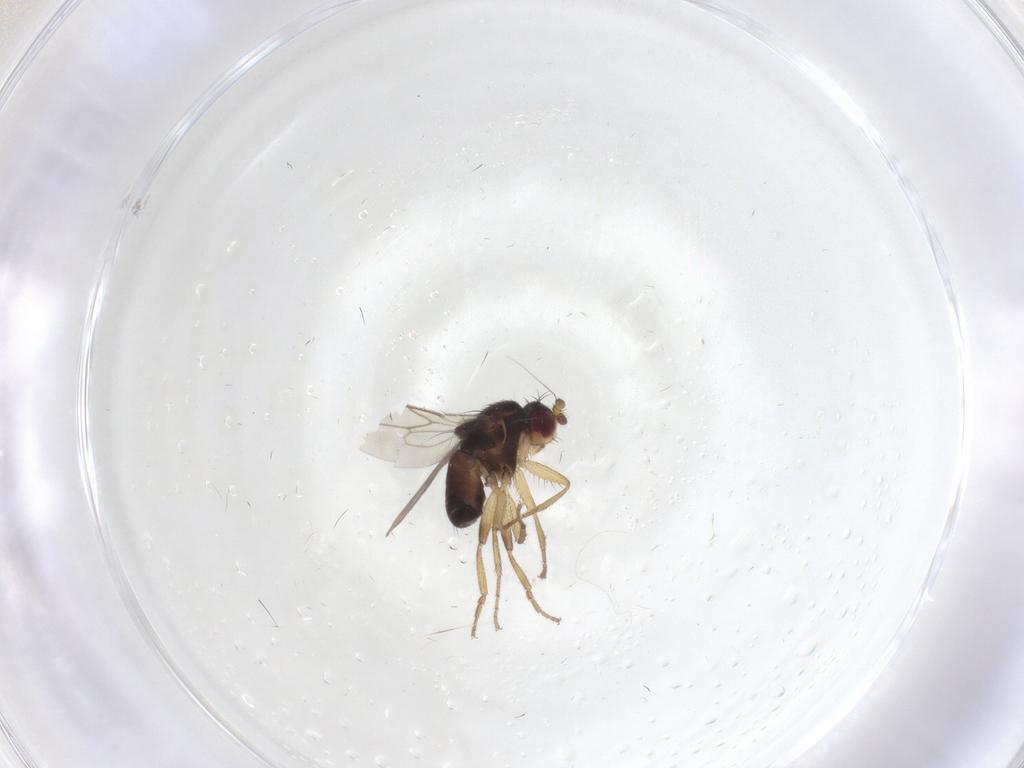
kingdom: Animalia
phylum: Arthropoda
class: Insecta
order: Diptera
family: Sphaeroceridae
